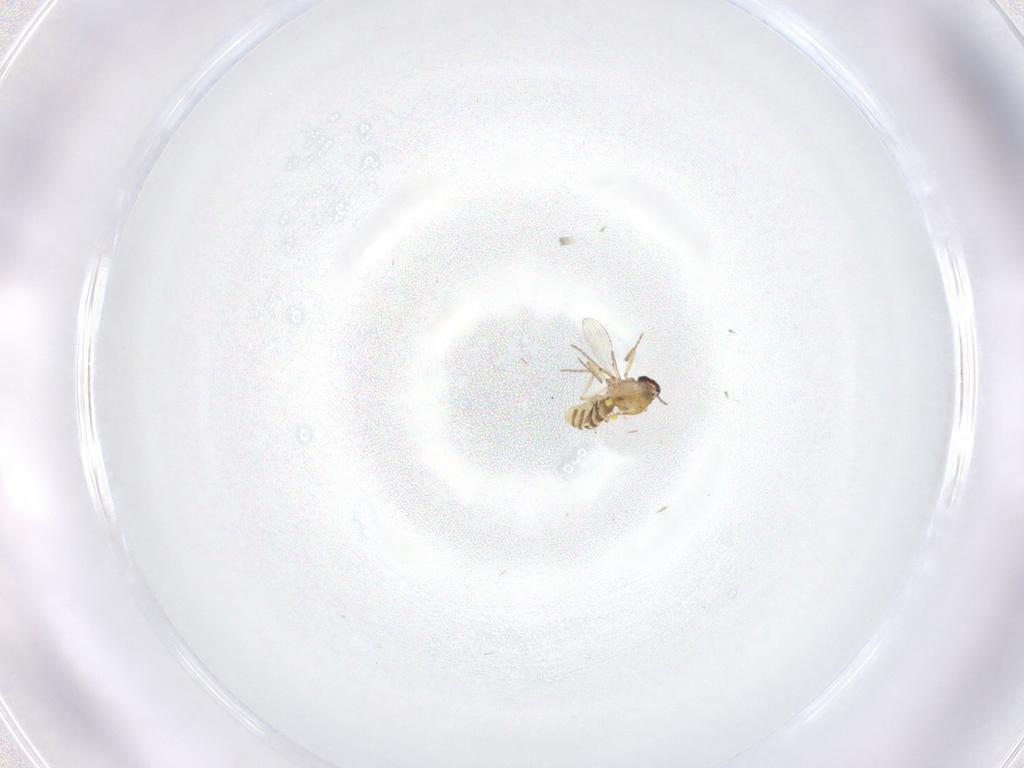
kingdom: Animalia
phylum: Arthropoda
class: Insecta
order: Diptera
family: Ceratopogonidae
